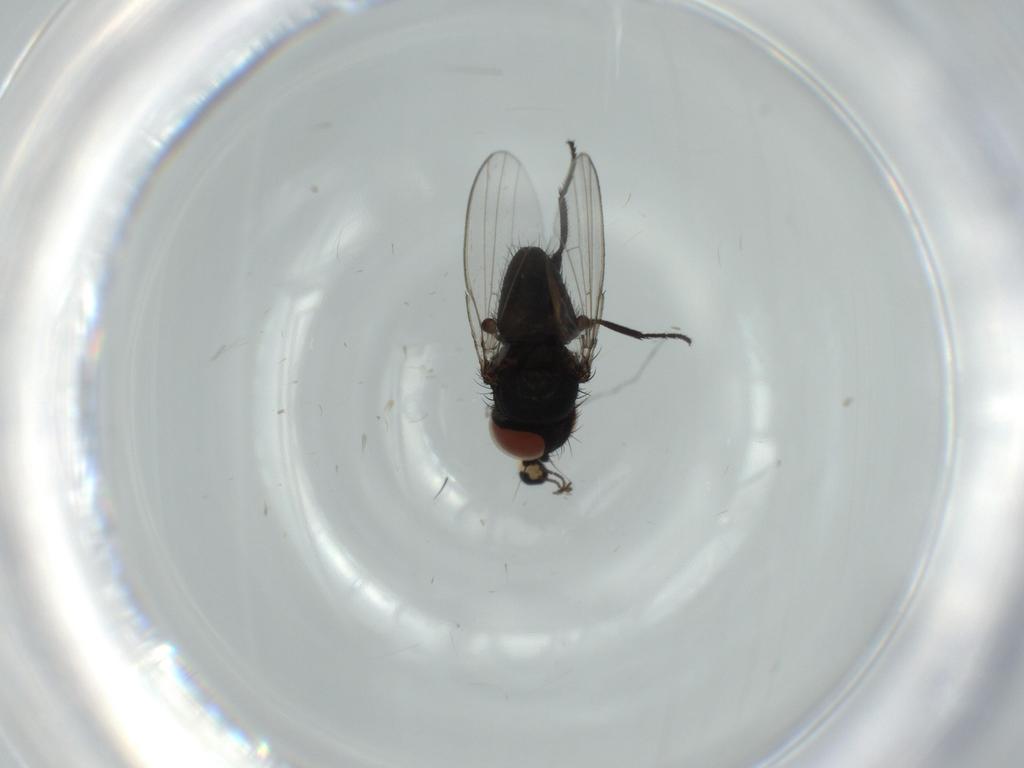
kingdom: Animalia
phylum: Arthropoda
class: Insecta
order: Diptera
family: Milichiidae
